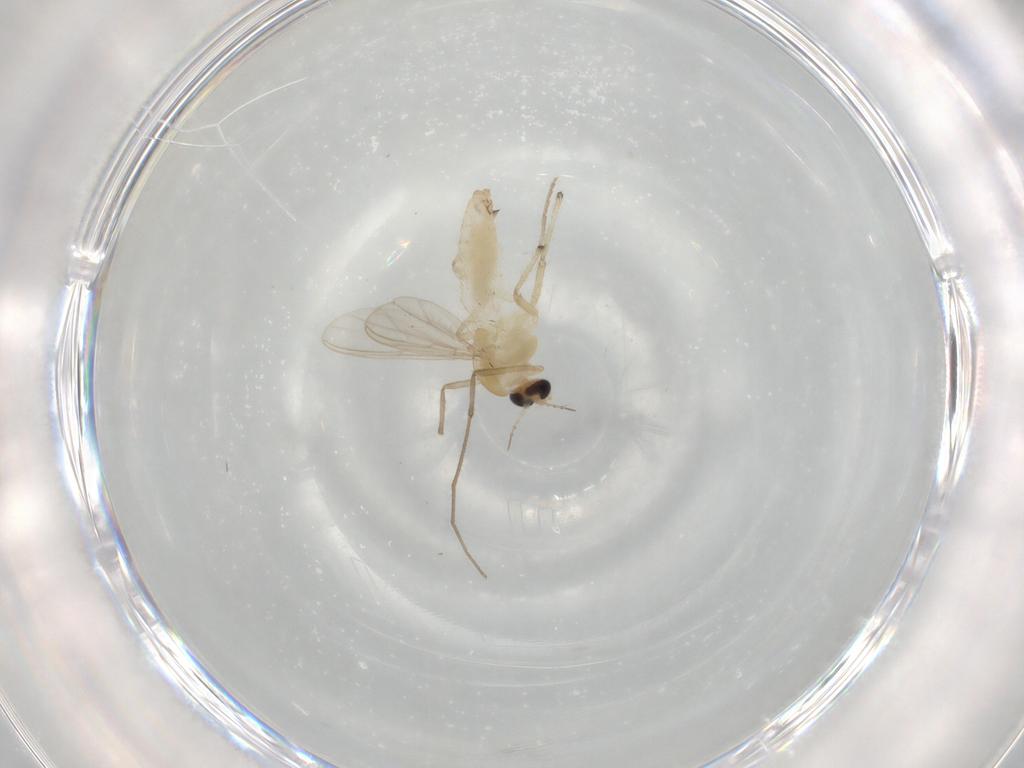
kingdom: Animalia
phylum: Arthropoda
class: Insecta
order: Diptera
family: Chironomidae
